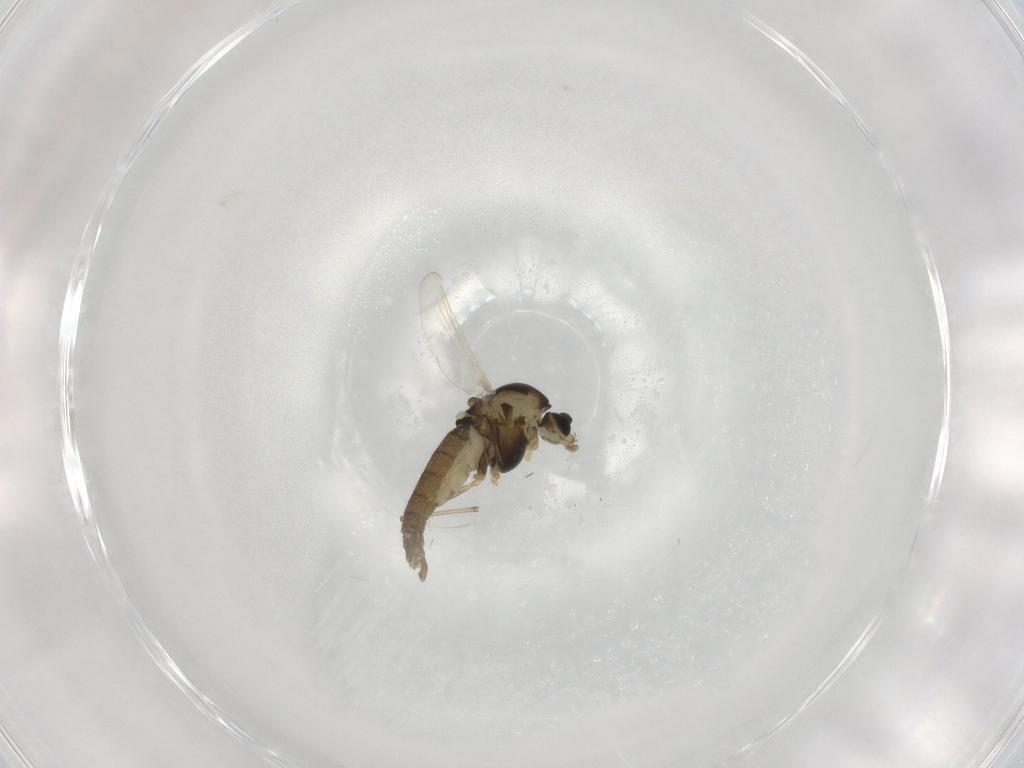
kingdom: Animalia
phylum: Arthropoda
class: Insecta
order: Diptera
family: Chironomidae
